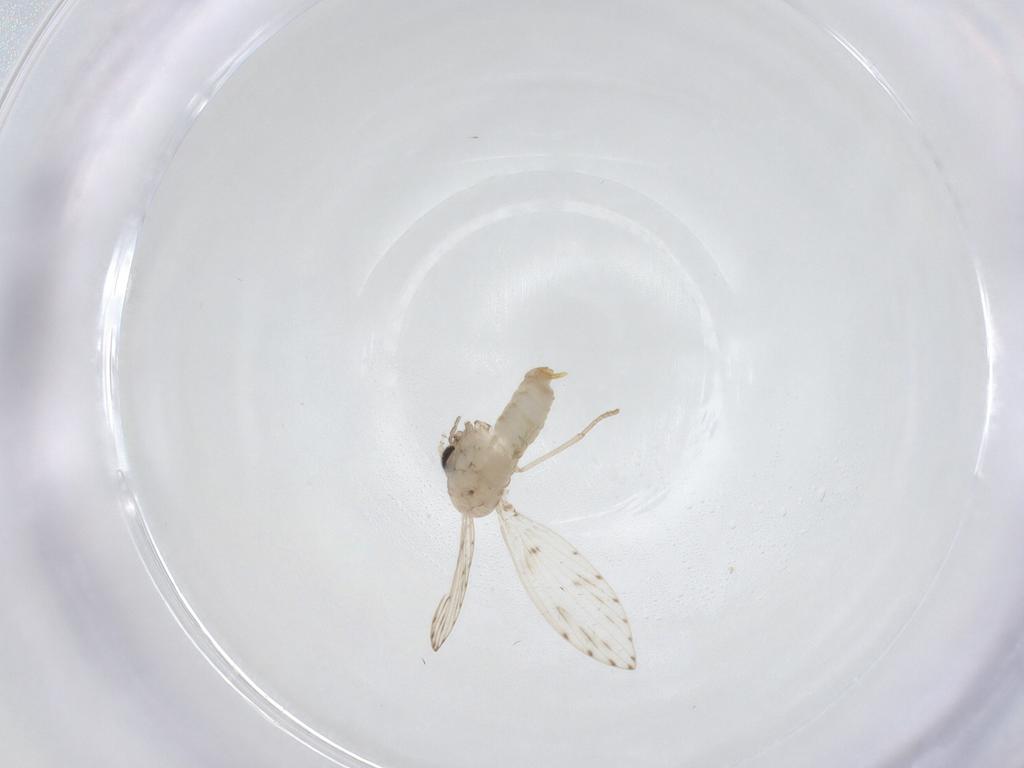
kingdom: Animalia
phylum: Arthropoda
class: Insecta
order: Diptera
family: Psychodidae
